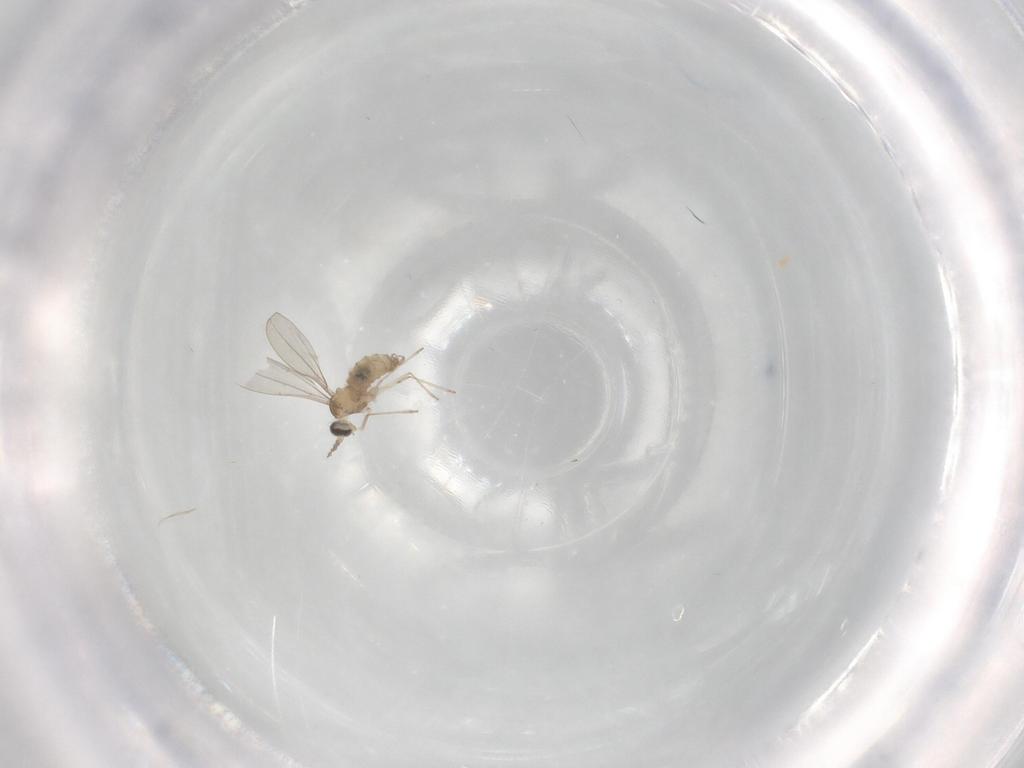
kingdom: Animalia
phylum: Arthropoda
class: Insecta
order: Diptera
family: Cecidomyiidae
